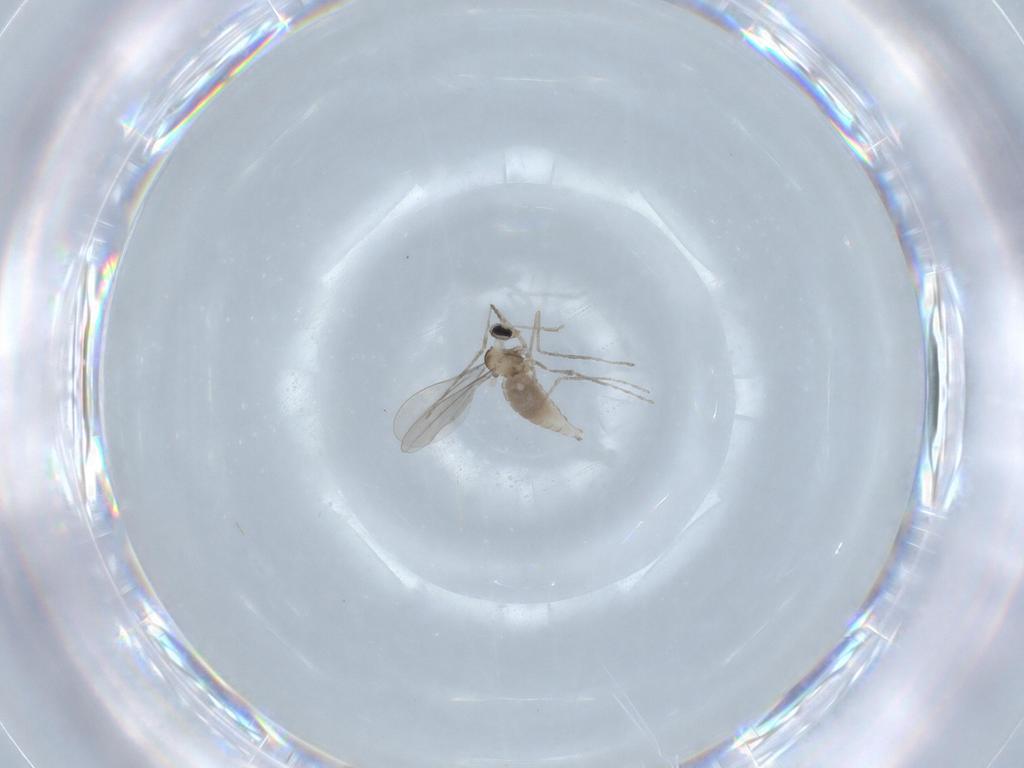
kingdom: Animalia
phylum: Arthropoda
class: Insecta
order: Diptera
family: Cecidomyiidae
